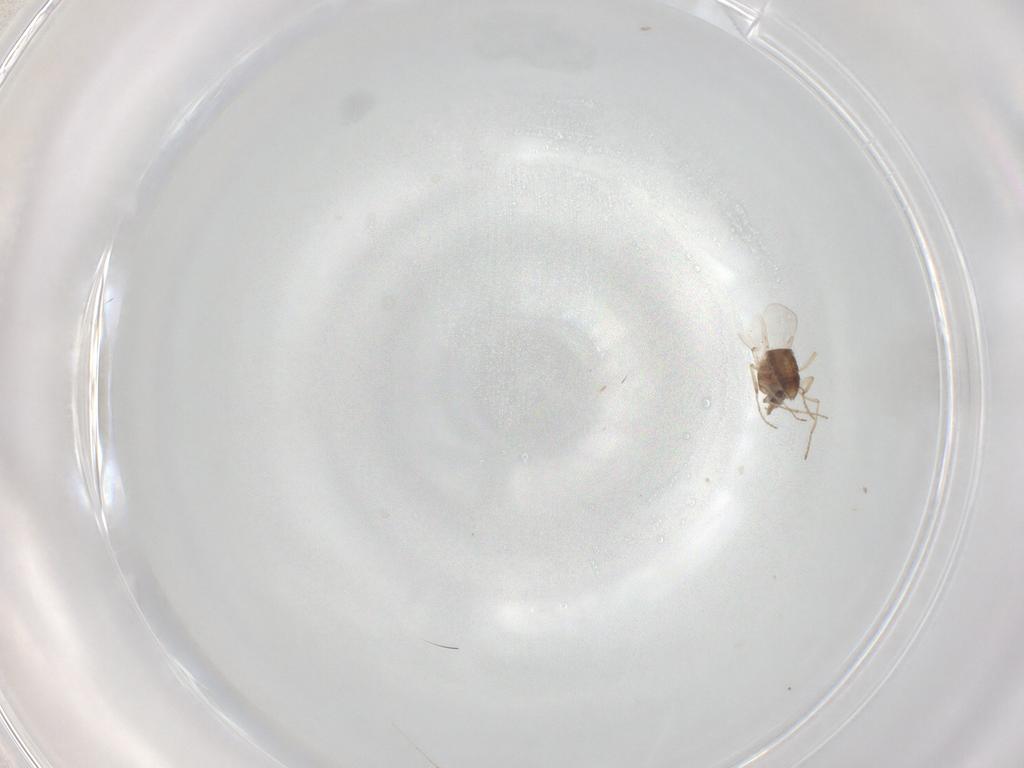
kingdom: Animalia
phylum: Arthropoda
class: Insecta
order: Diptera
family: Ceratopogonidae
